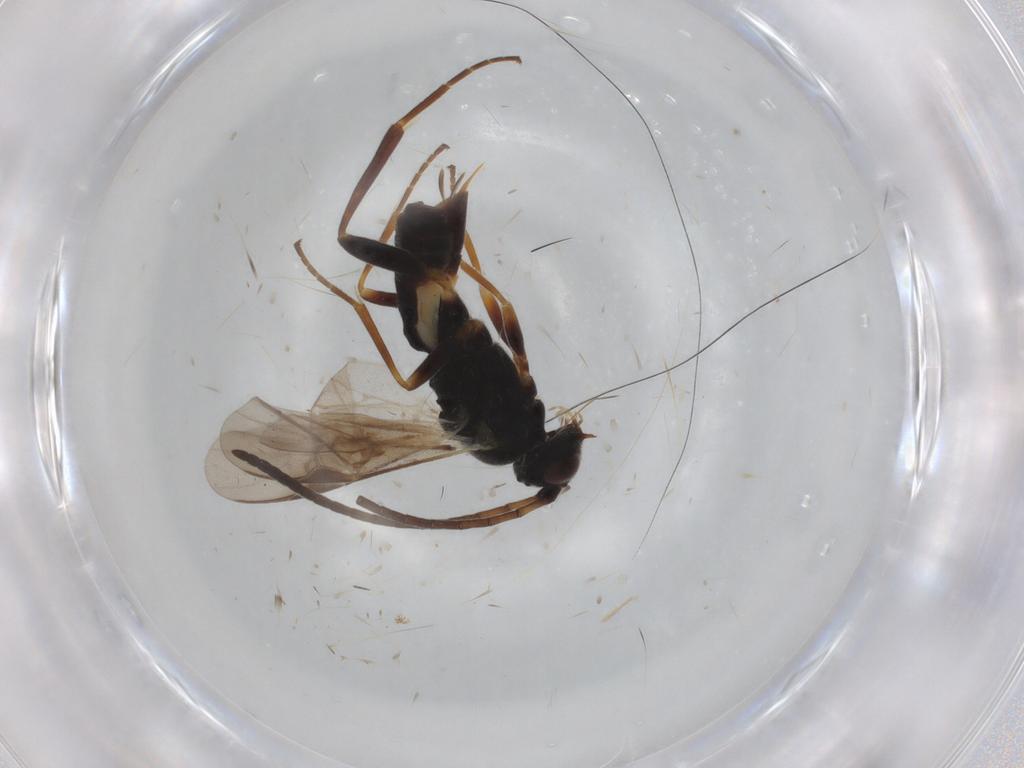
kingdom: Animalia
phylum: Arthropoda
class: Insecta
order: Hymenoptera
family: Braconidae
